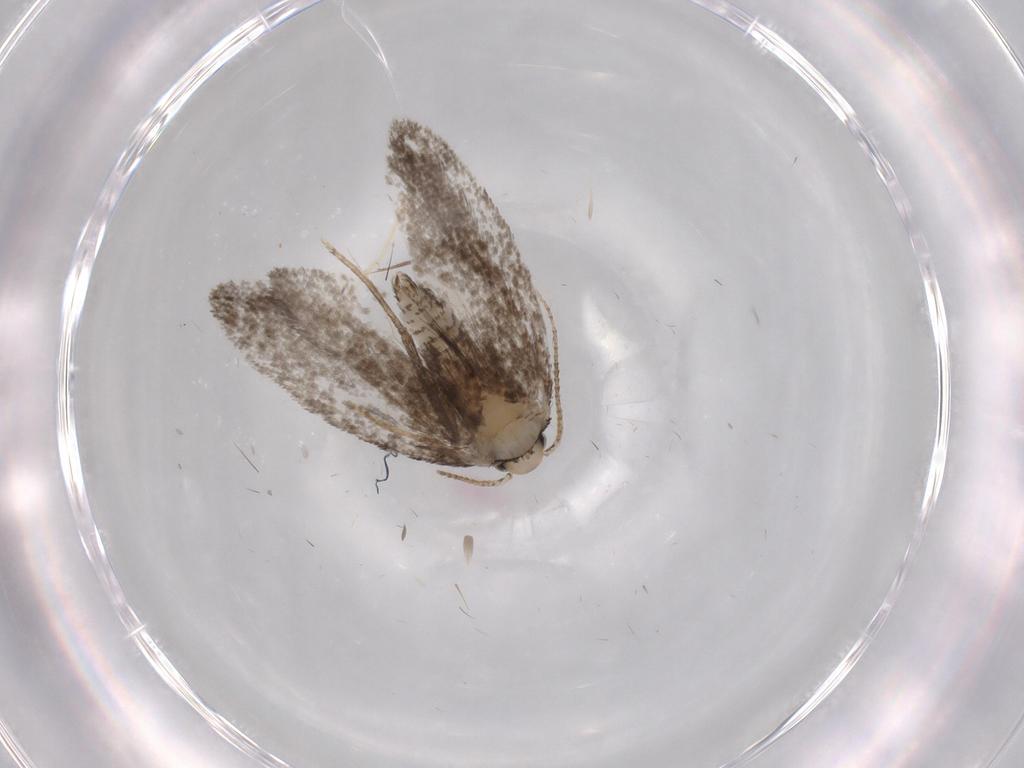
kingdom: Animalia
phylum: Arthropoda
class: Insecta
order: Lepidoptera
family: Psychidae
